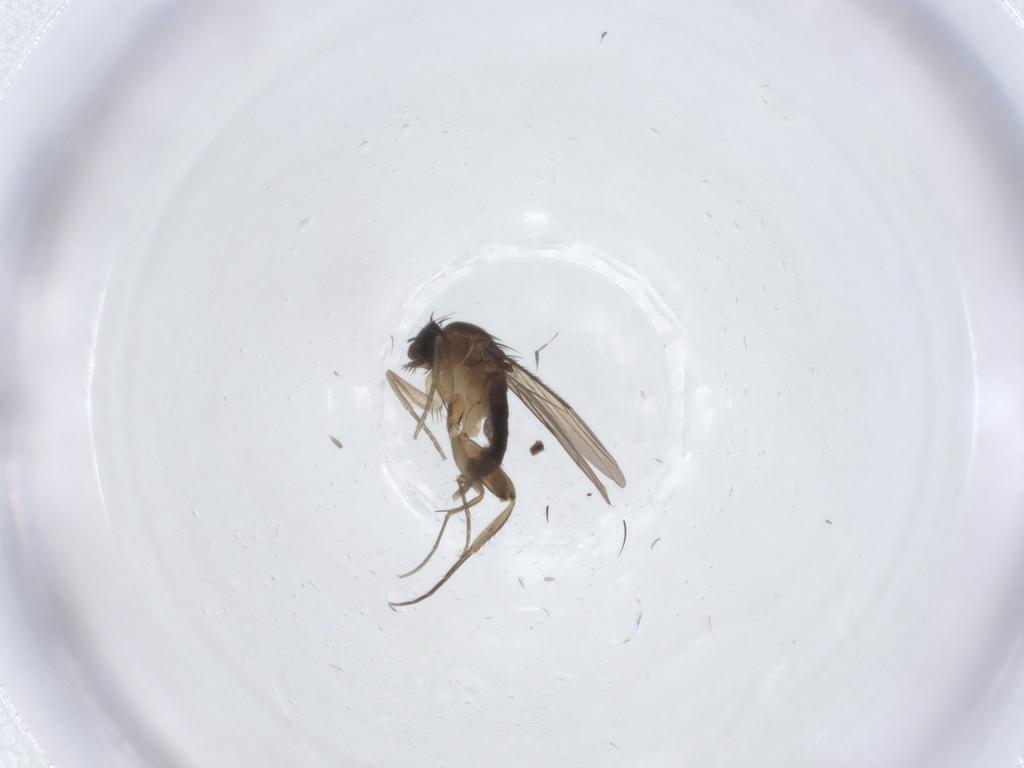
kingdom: Animalia
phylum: Arthropoda
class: Insecta
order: Diptera
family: Cecidomyiidae
